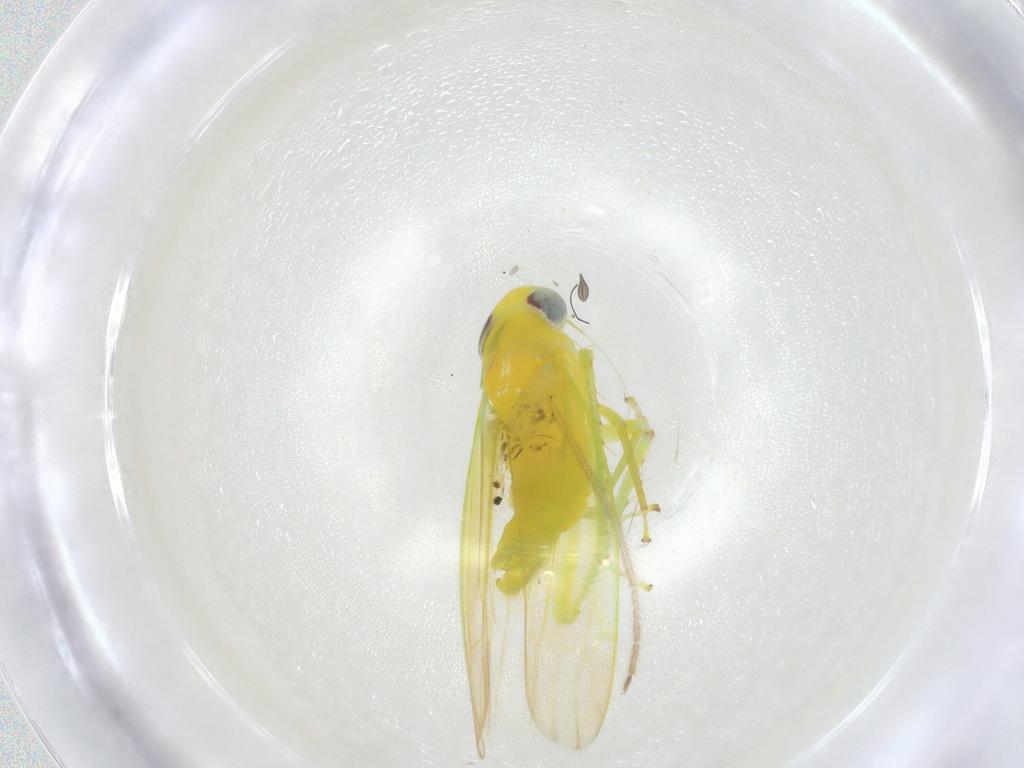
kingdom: Animalia
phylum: Arthropoda
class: Insecta
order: Hemiptera
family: Cicadellidae
